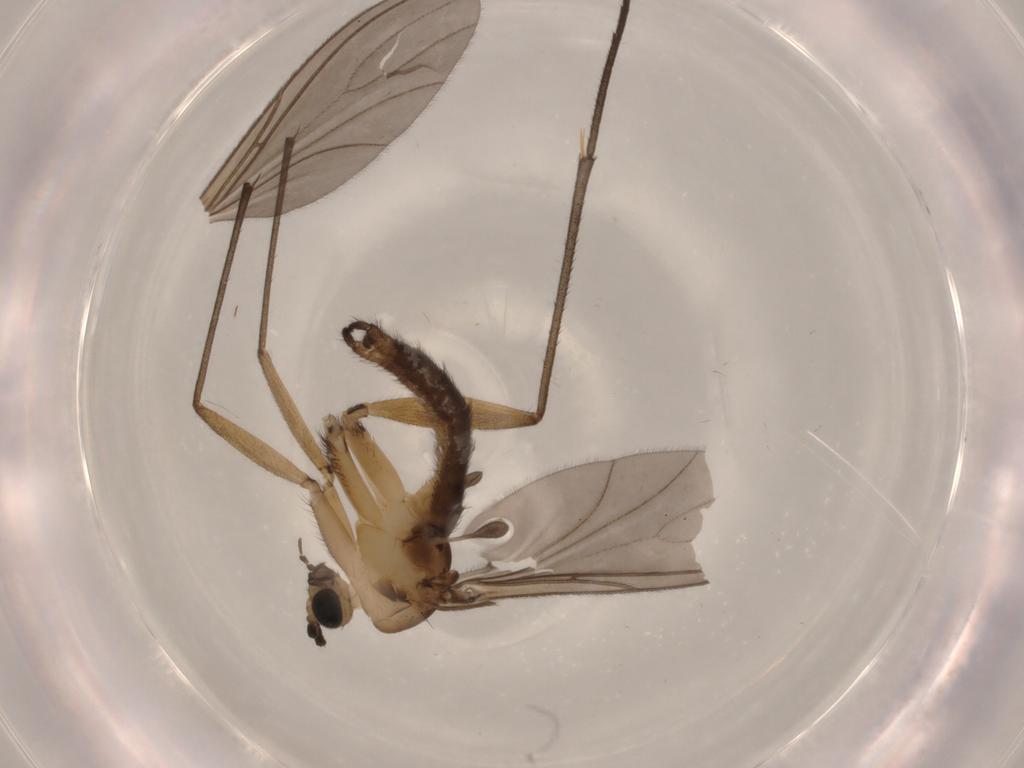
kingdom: Animalia
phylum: Arthropoda
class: Insecta
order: Diptera
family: Sciaridae
